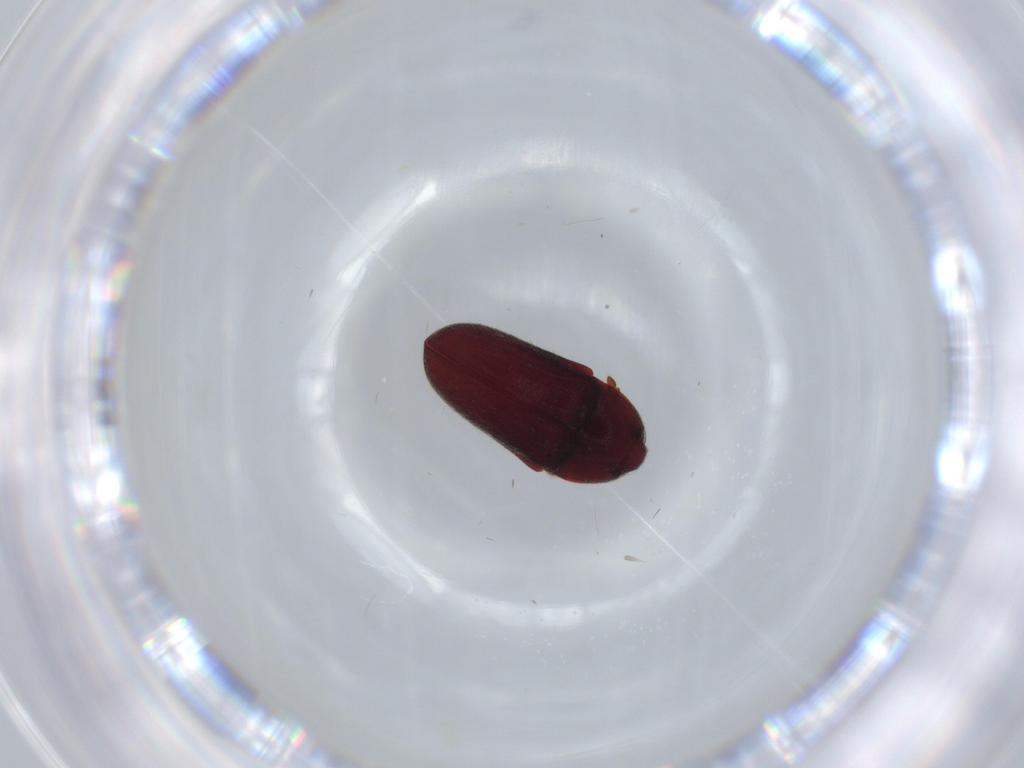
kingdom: Animalia
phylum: Arthropoda
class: Insecta
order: Coleoptera
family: Throscidae
